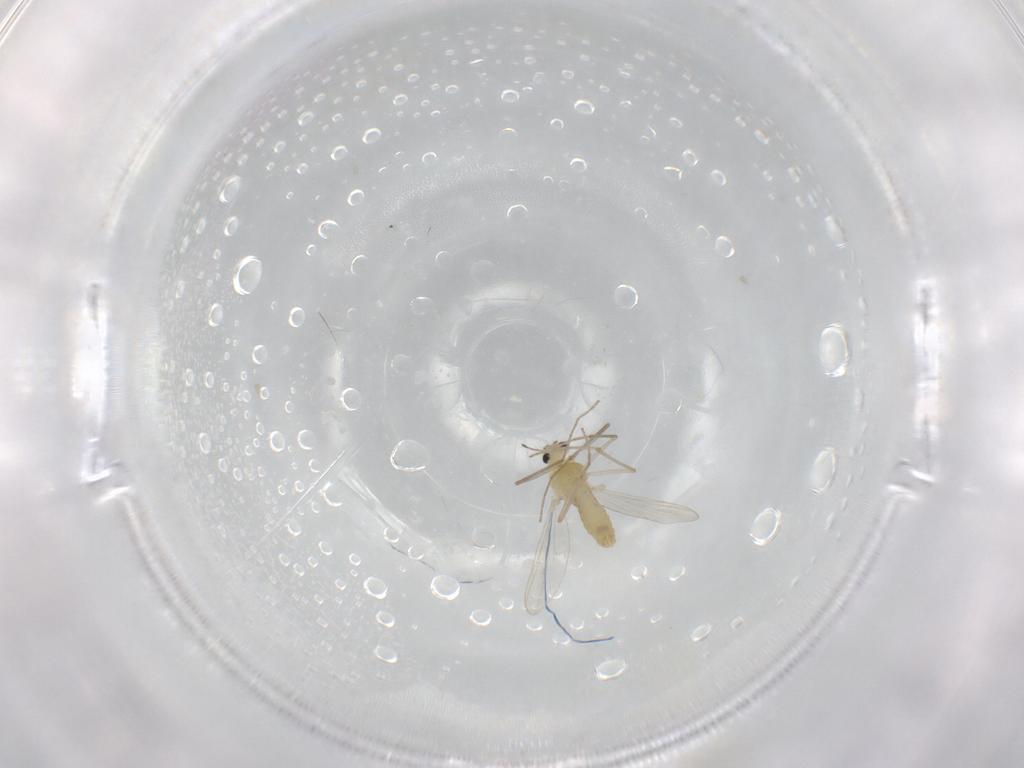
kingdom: Animalia
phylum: Arthropoda
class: Insecta
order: Diptera
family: Chironomidae
